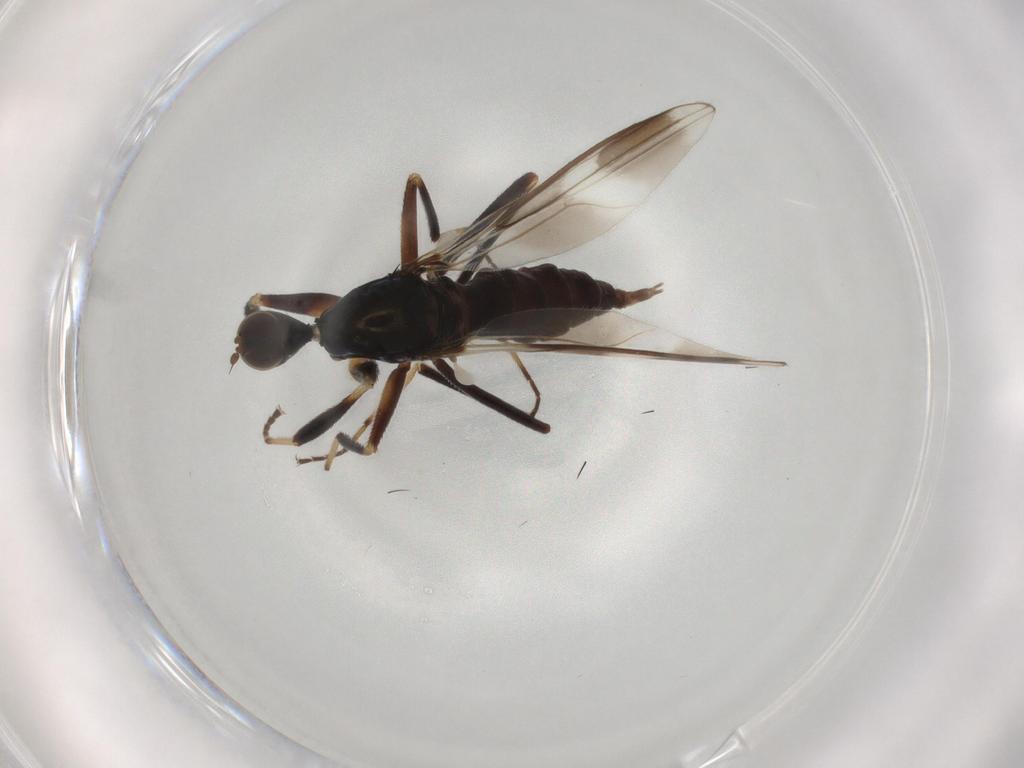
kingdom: Animalia
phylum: Arthropoda
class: Insecta
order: Diptera
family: Hybotidae
